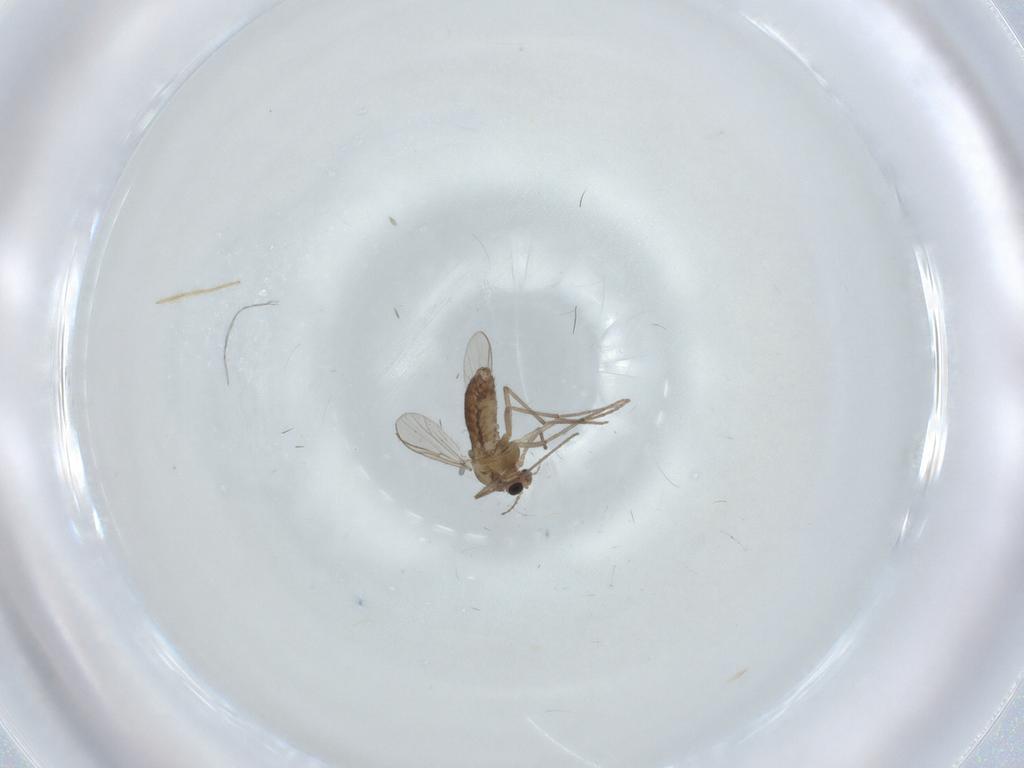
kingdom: Animalia
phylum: Arthropoda
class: Insecta
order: Diptera
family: Chironomidae
